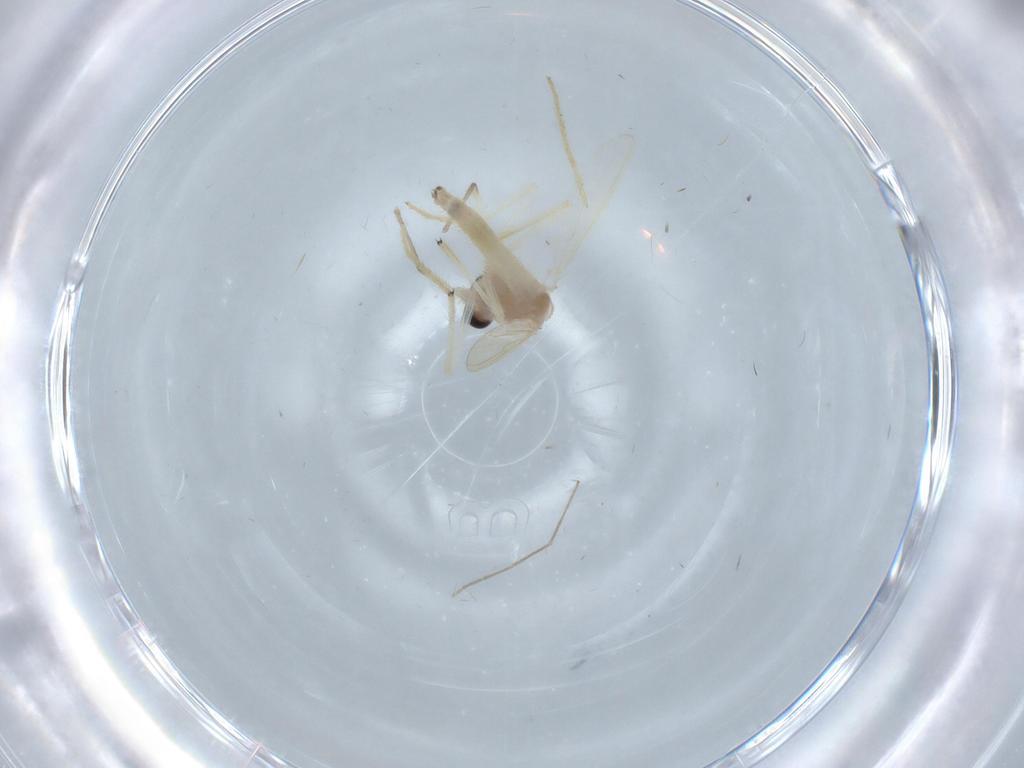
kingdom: Animalia
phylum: Arthropoda
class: Insecta
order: Diptera
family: Chironomidae
